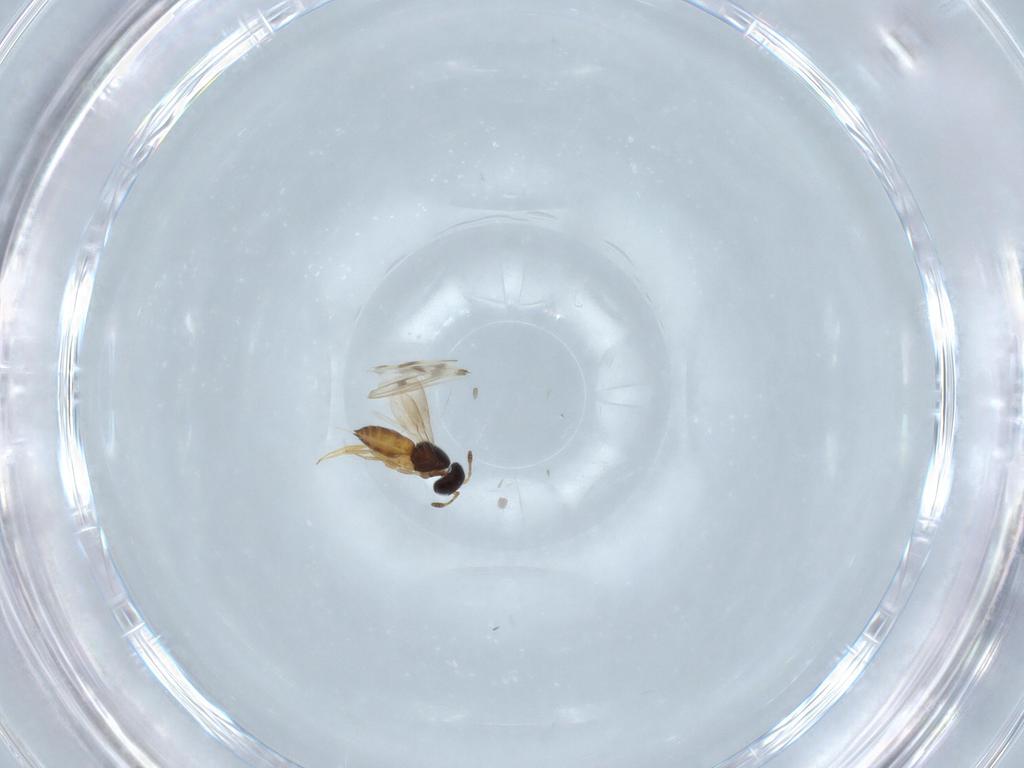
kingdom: Animalia
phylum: Arthropoda
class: Insecta
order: Hymenoptera
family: Scelionidae
